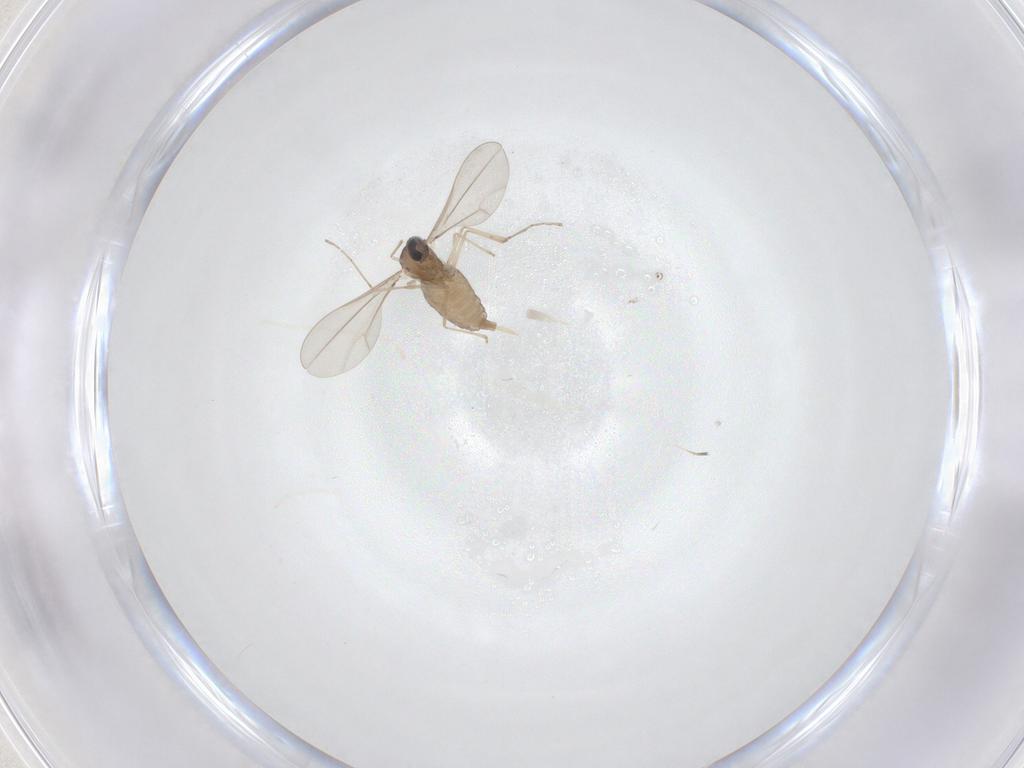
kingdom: Animalia
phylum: Arthropoda
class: Insecta
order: Diptera
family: Cecidomyiidae
